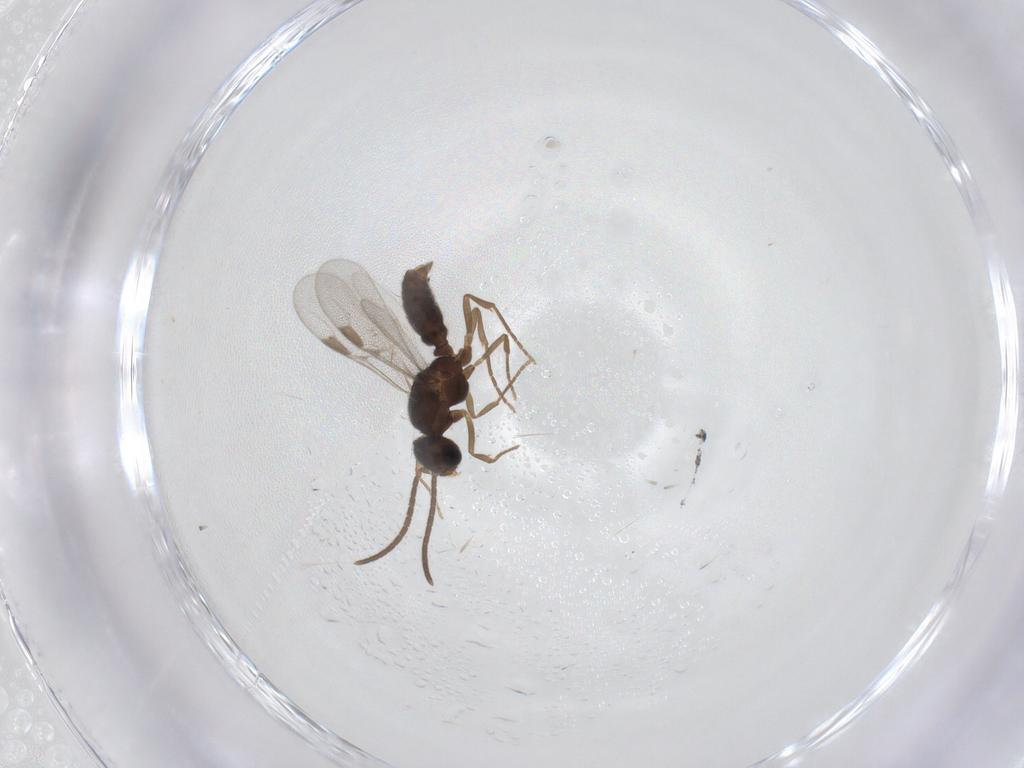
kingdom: Animalia
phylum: Arthropoda
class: Insecta
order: Hymenoptera
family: Formicidae
